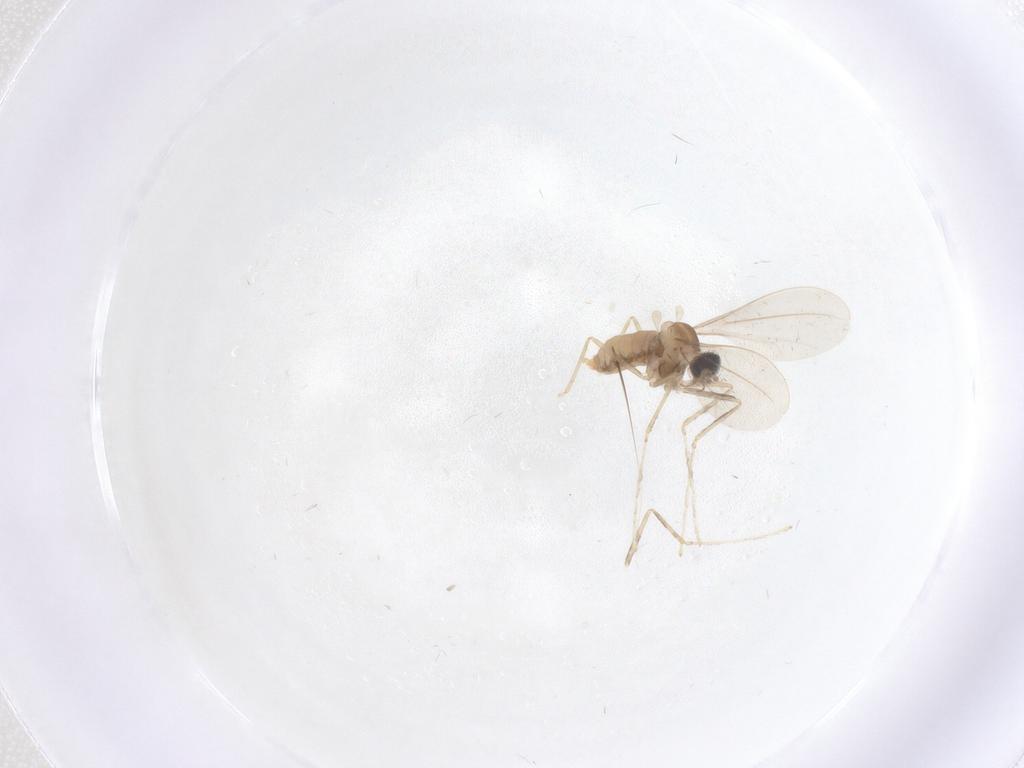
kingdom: Animalia
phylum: Arthropoda
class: Insecta
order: Diptera
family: Cecidomyiidae
